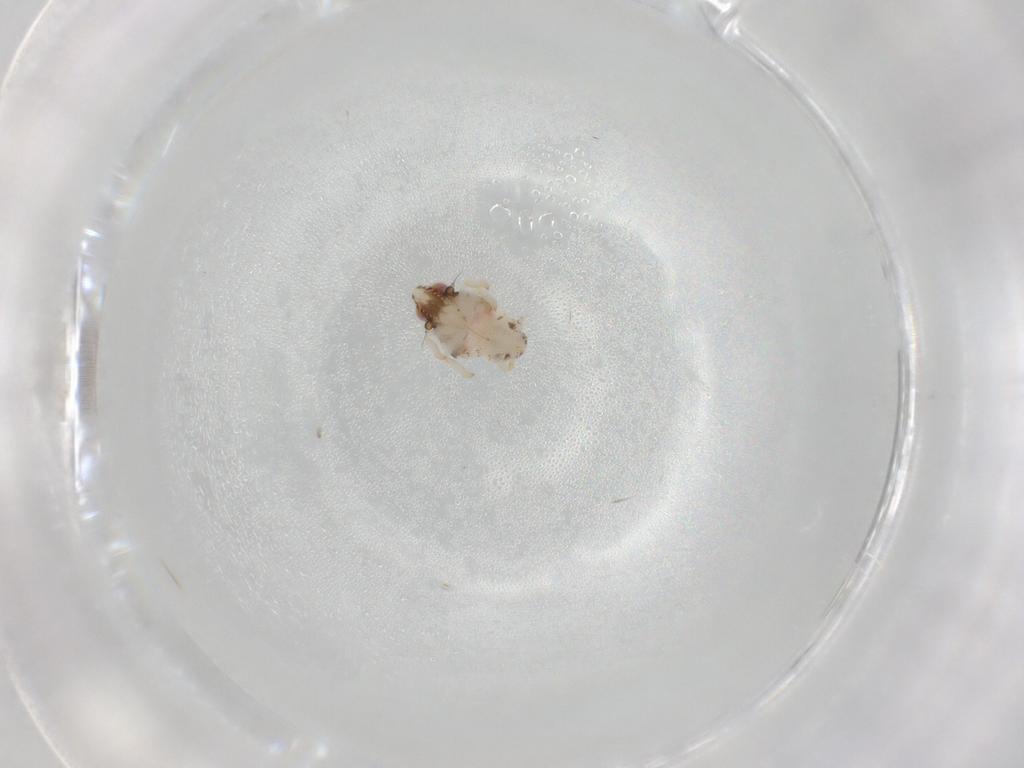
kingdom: Animalia
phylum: Arthropoda
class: Insecta
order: Hemiptera
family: Nogodinidae
